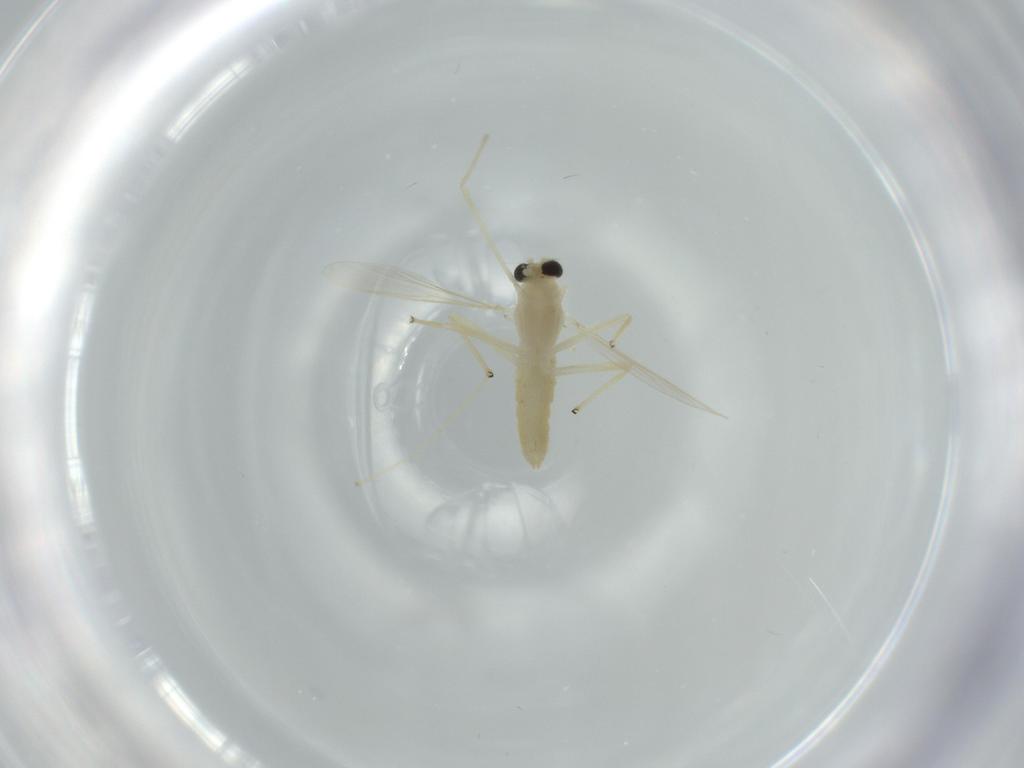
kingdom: Animalia
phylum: Arthropoda
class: Insecta
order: Diptera
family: Chironomidae
